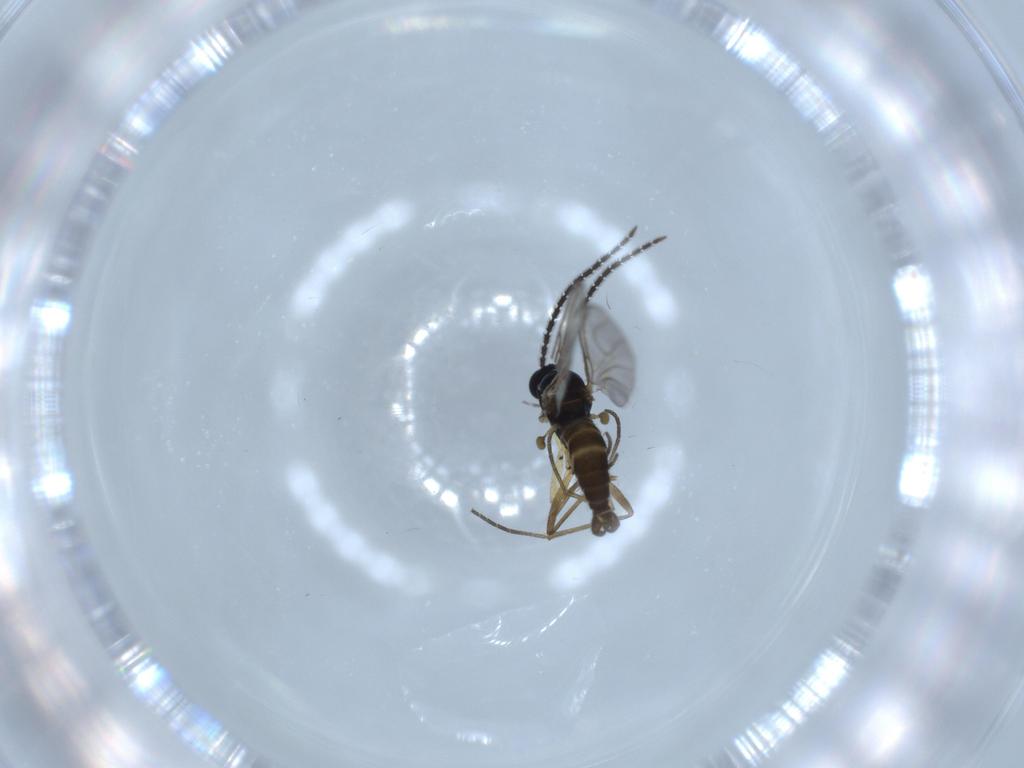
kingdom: Animalia
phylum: Arthropoda
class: Insecta
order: Diptera
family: Sciaridae
